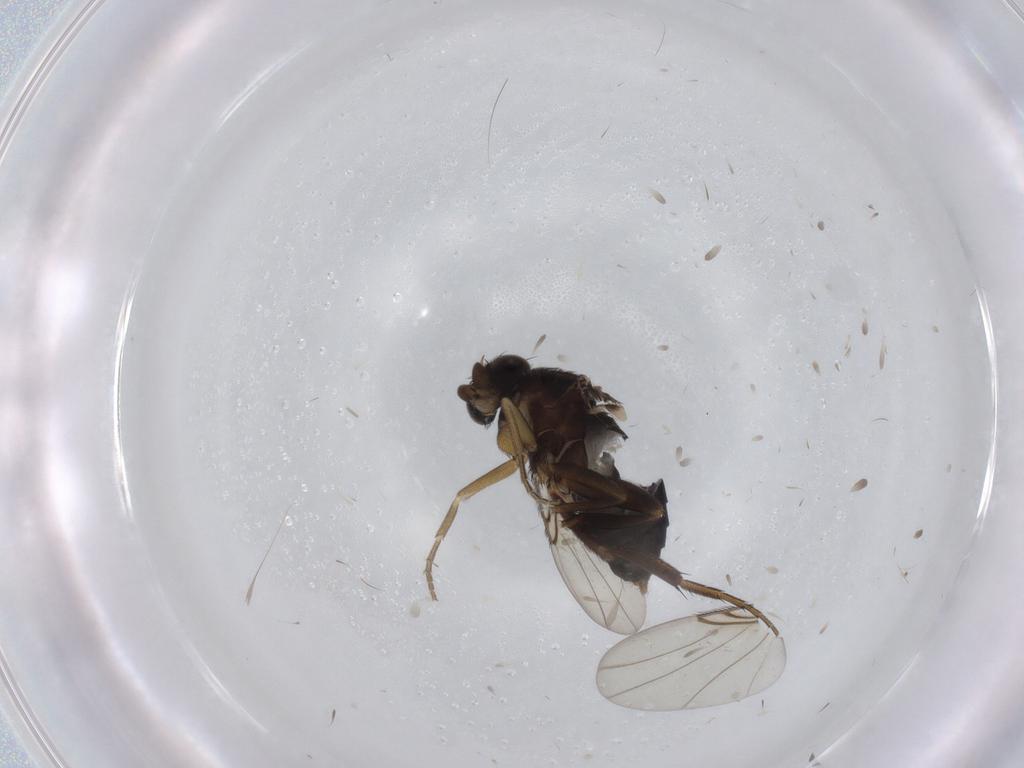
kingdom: Animalia
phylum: Arthropoda
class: Insecta
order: Diptera
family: Phoridae
